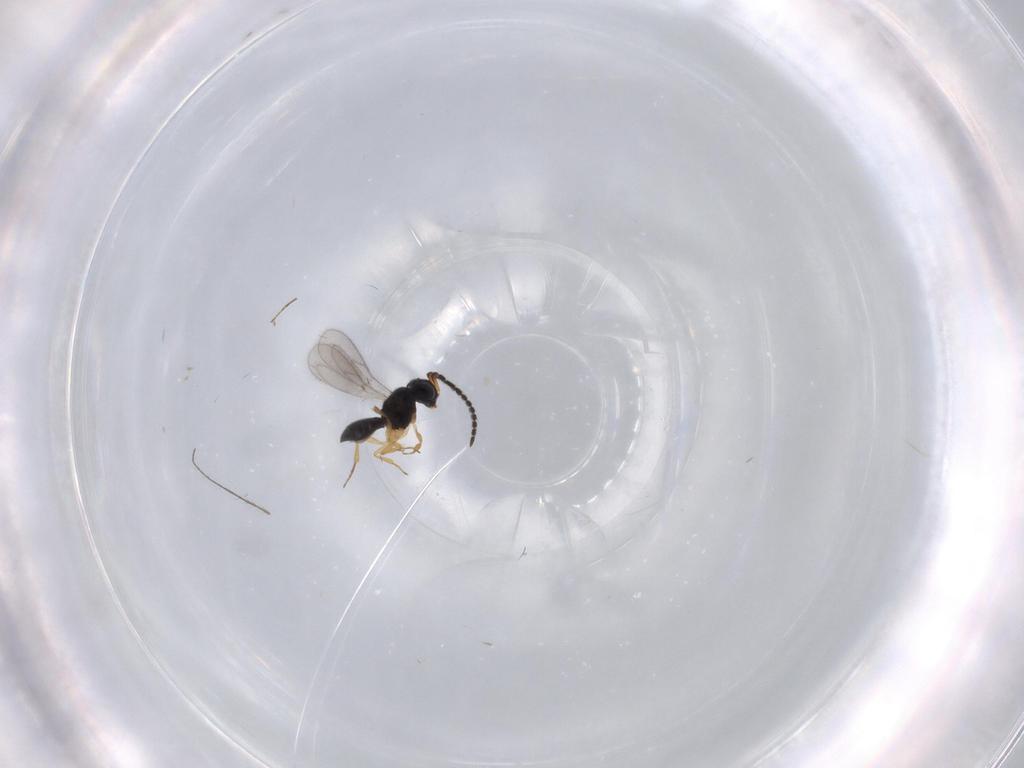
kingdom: Animalia
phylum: Arthropoda
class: Insecta
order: Hymenoptera
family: Scelionidae
